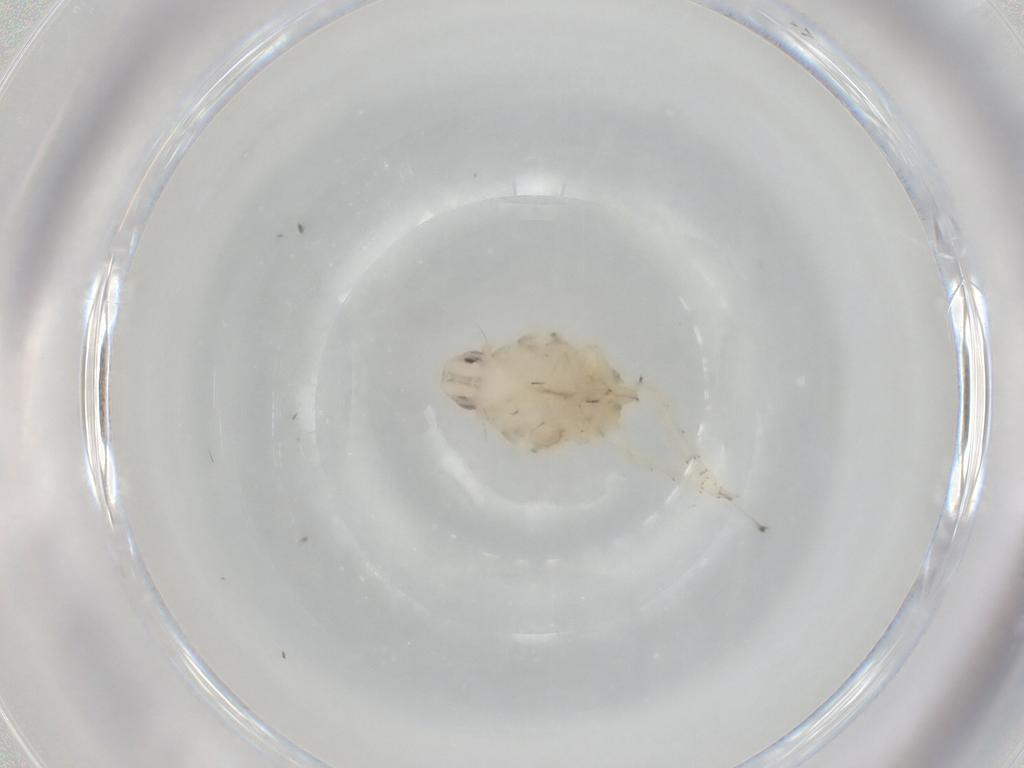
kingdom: Animalia
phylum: Arthropoda
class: Insecta
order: Hemiptera
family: Flatidae
